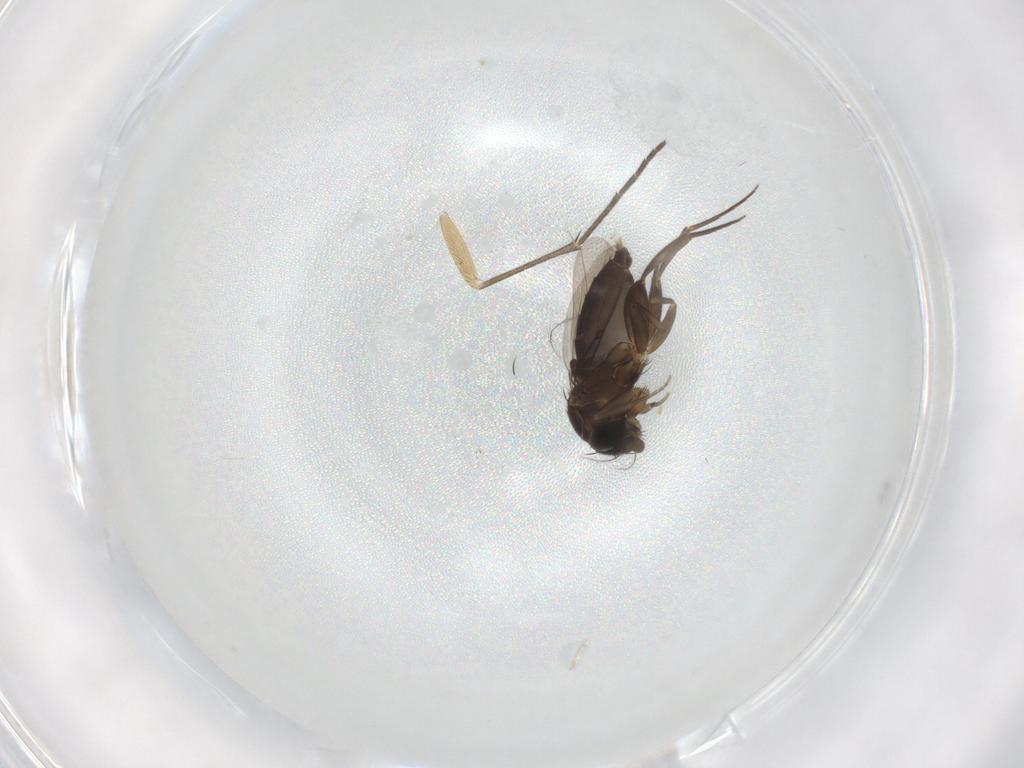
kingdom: Animalia
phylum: Arthropoda
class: Insecta
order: Diptera
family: Sciaridae
